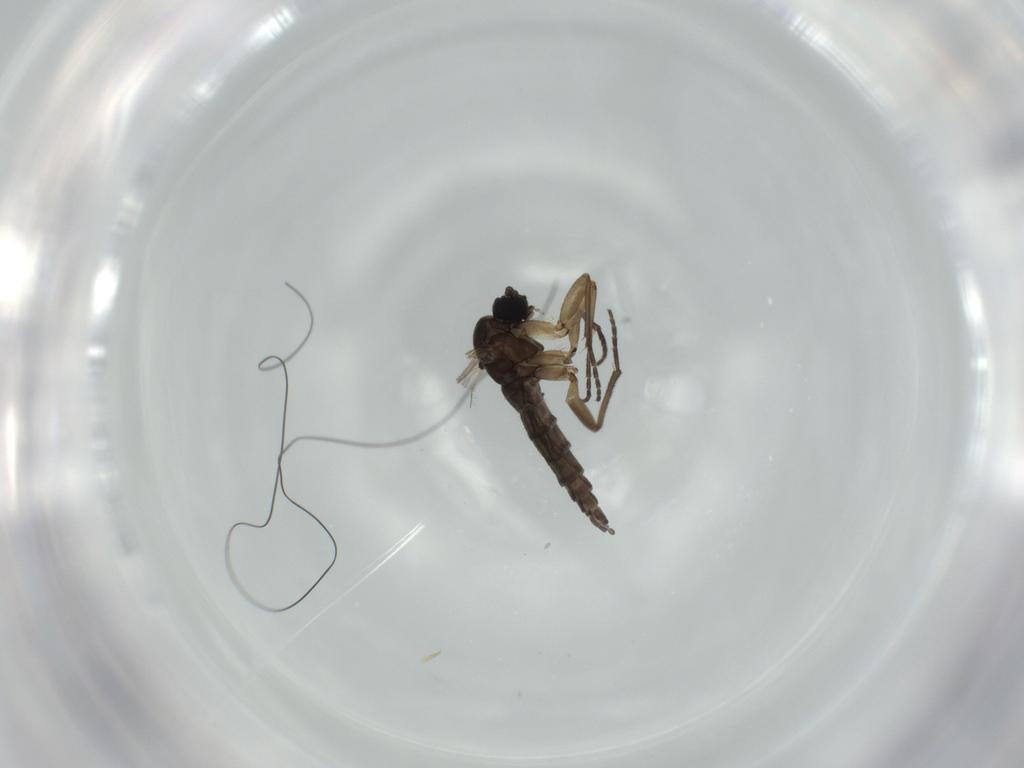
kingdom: Animalia
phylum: Arthropoda
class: Insecta
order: Diptera
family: Sciaridae
